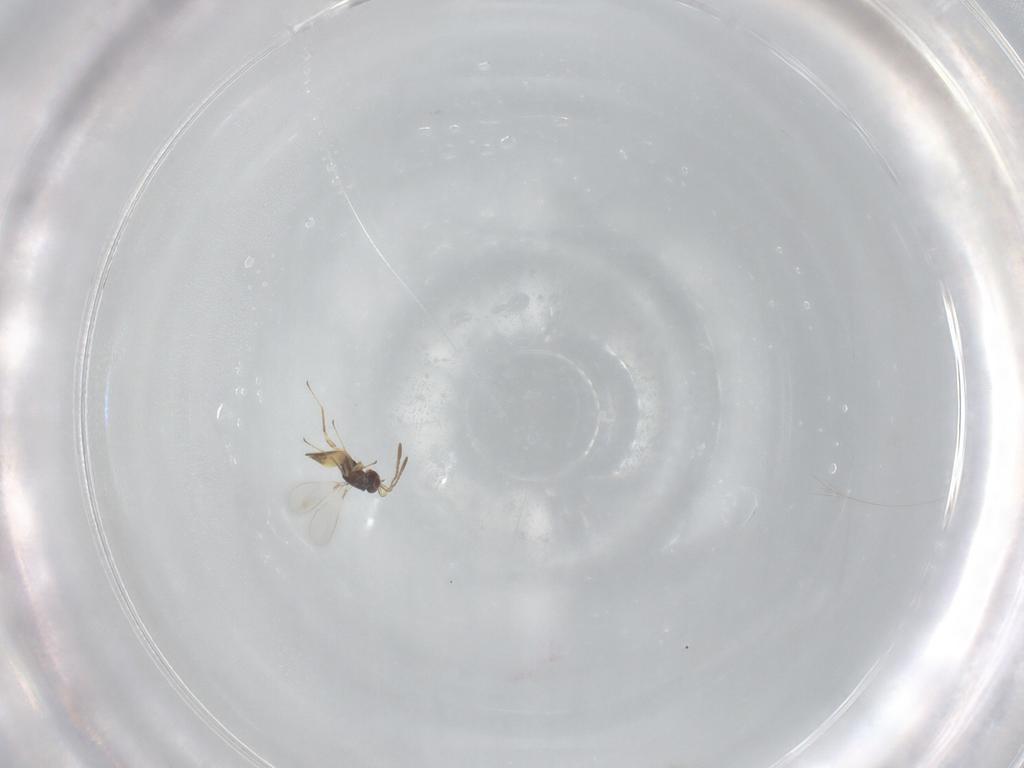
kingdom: Animalia
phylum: Arthropoda
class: Insecta
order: Hymenoptera
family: Mymaridae
